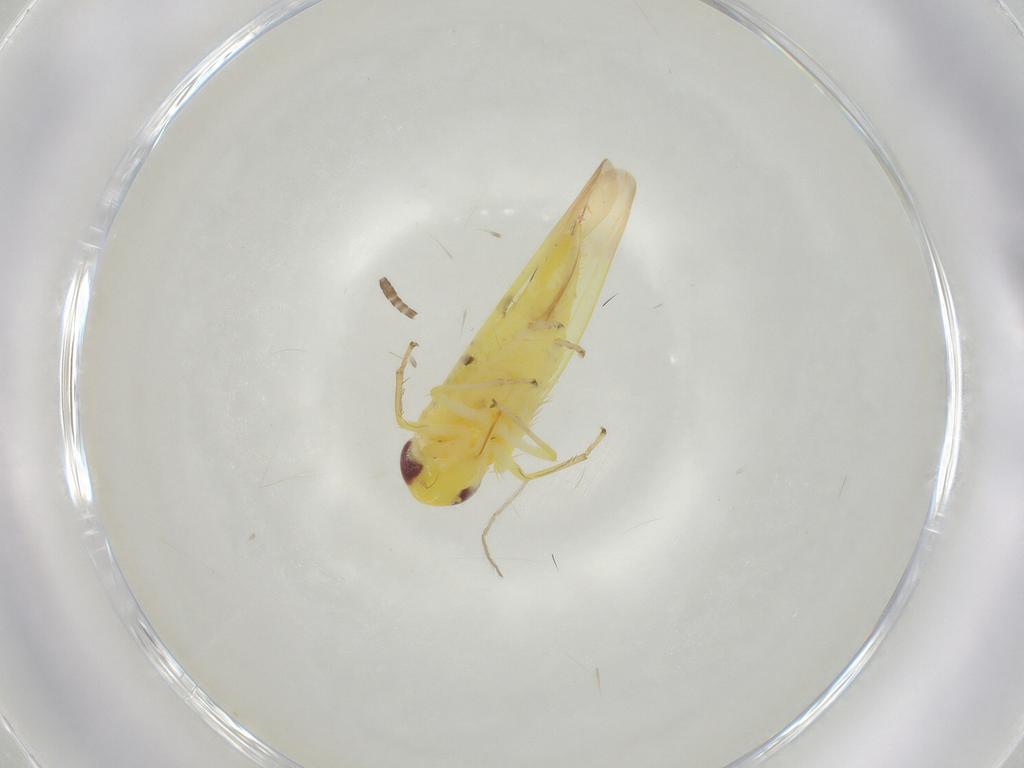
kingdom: Animalia
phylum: Arthropoda
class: Insecta
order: Hemiptera
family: Cicadellidae
